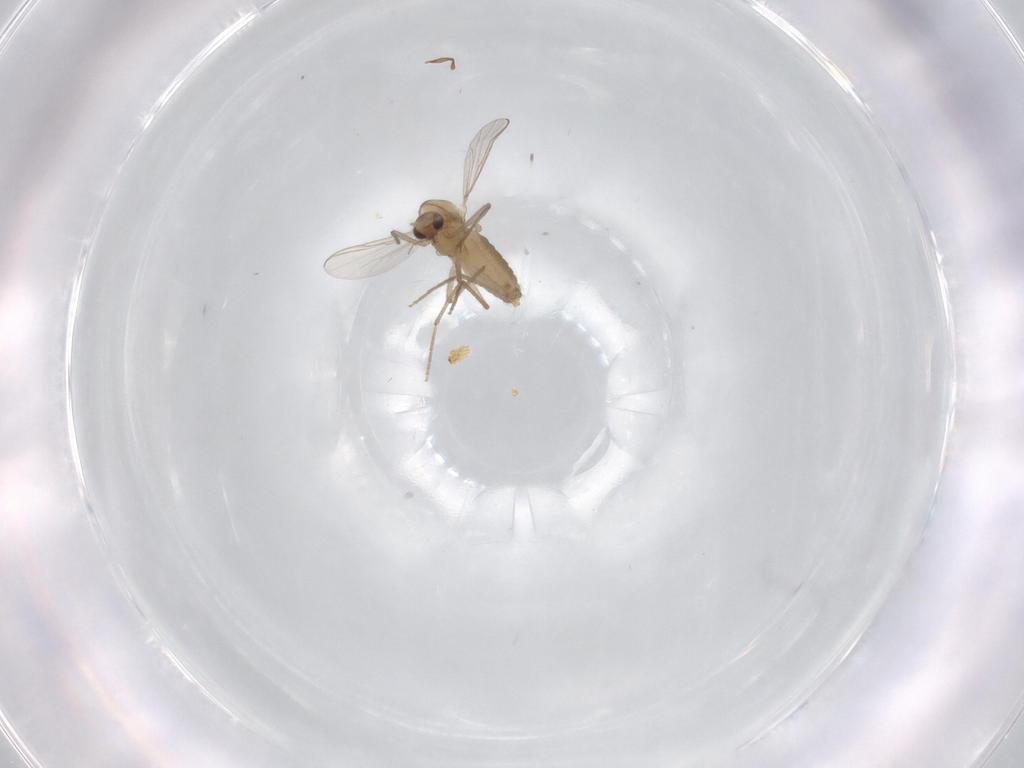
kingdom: Animalia
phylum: Arthropoda
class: Insecta
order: Diptera
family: Chironomidae
